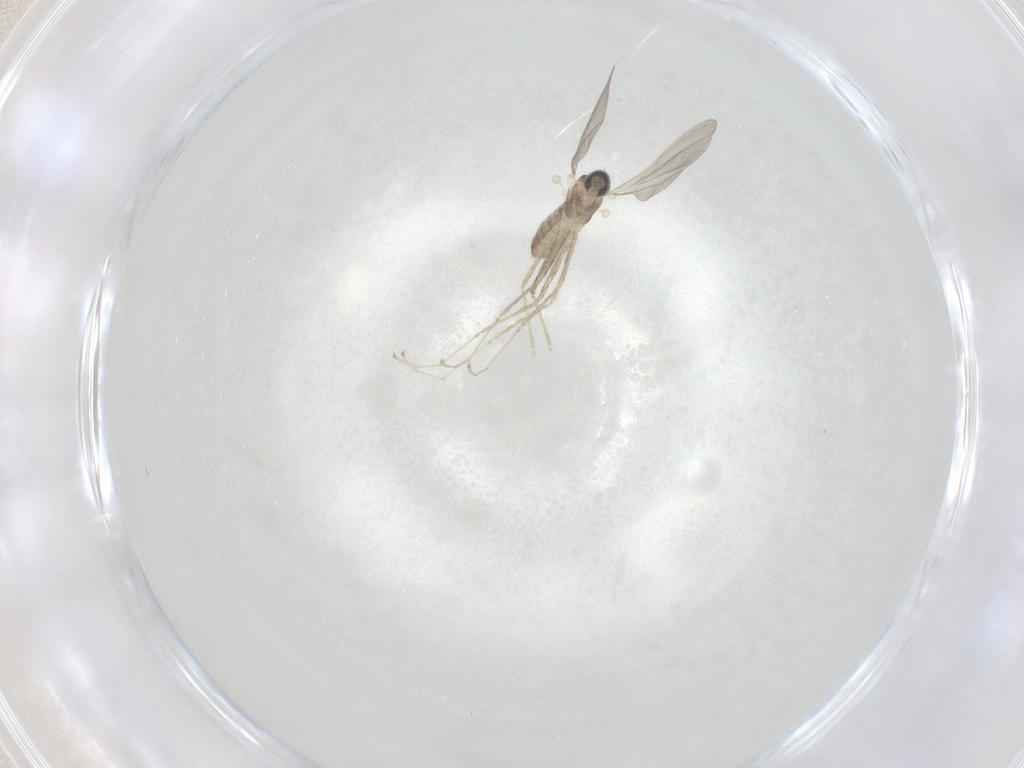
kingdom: Animalia
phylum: Arthropoda
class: Insecta
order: Diptera
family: Cecidomyiidae
